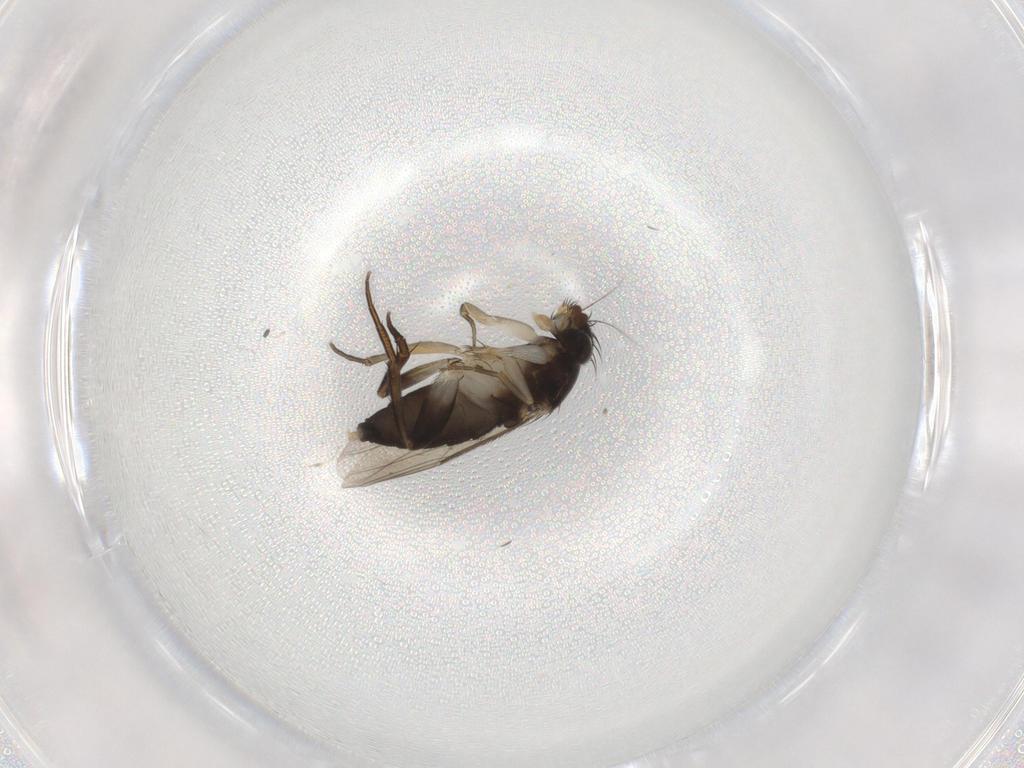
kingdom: Animalia
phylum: Arthropoda
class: Insecta
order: Diptera
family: Phoridae
